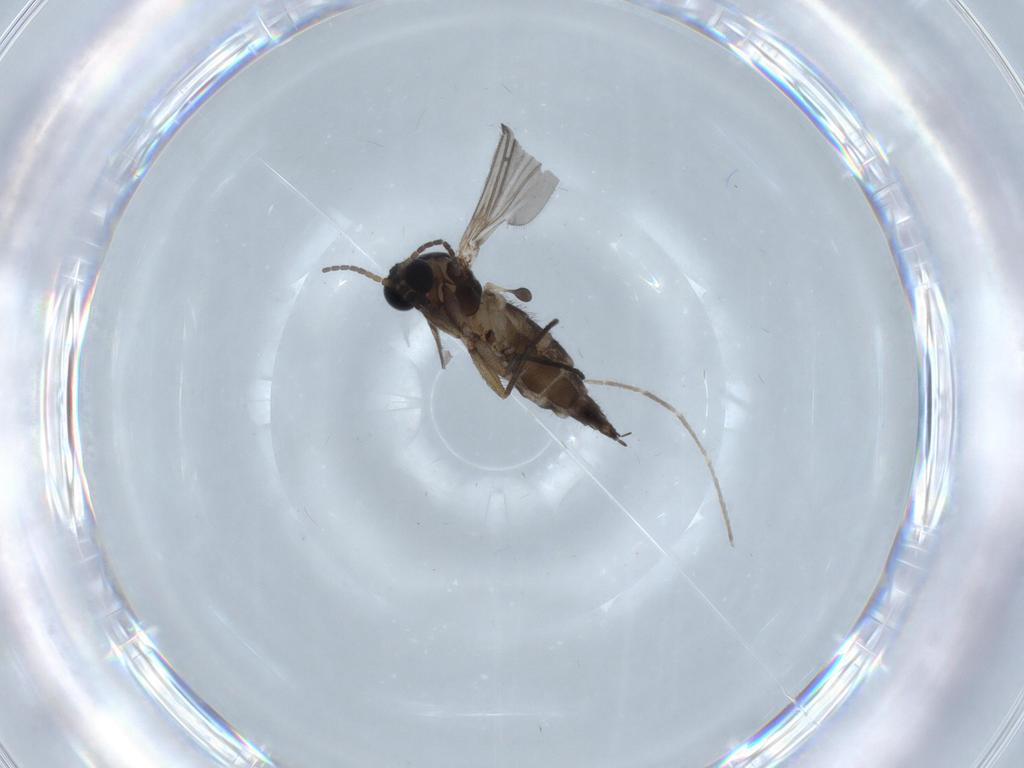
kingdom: Animalia
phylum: Arthropoda
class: Insecta
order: Diptera
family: Sciaridae
